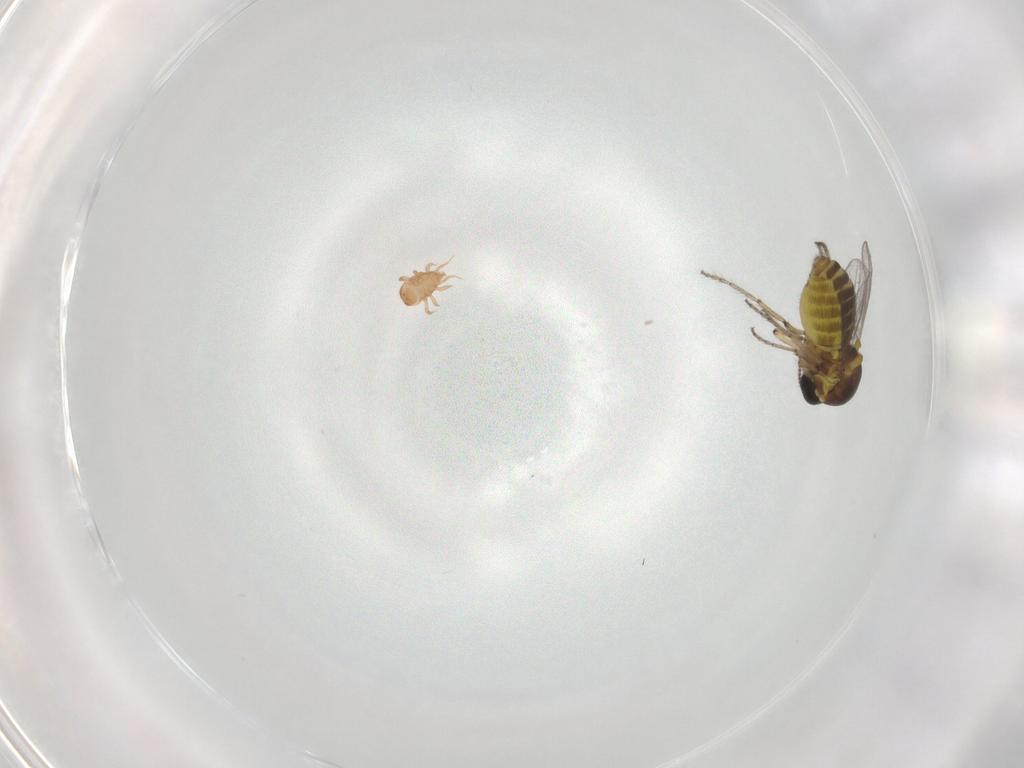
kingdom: Animalia
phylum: Arthropoda
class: Insecta
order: Diptera
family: Ceratopogonidae
